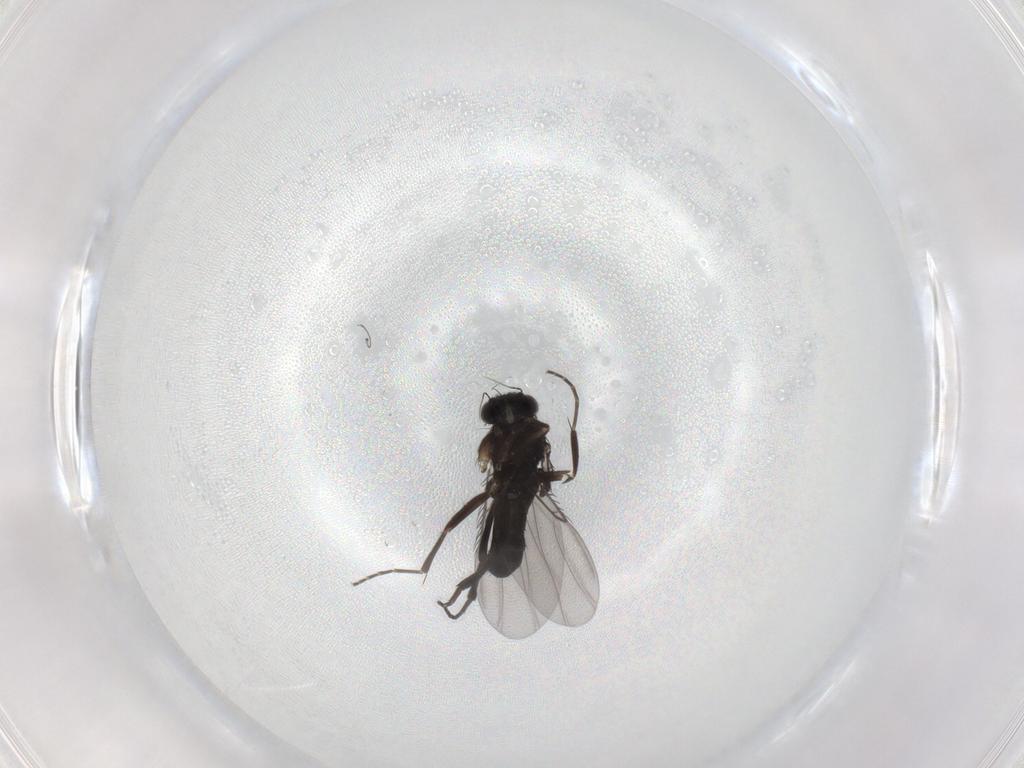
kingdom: Animalia
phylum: Arthropoda
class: Insecta
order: Diptera
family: Phoridae
